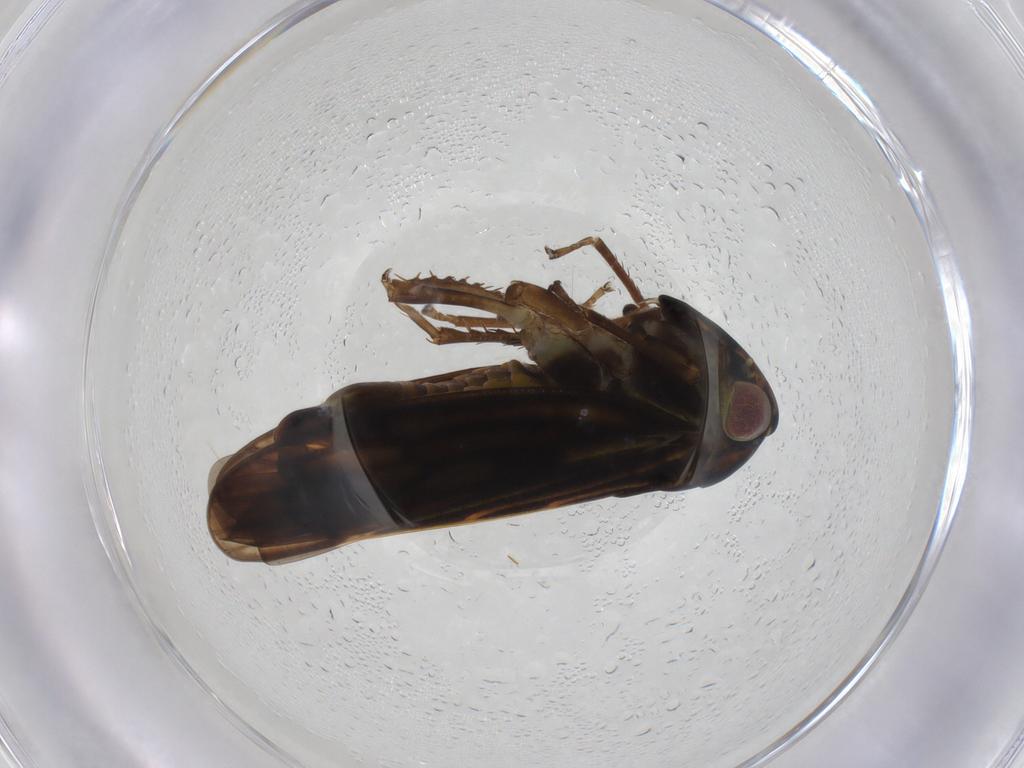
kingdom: Animalia
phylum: Arthropoda
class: Insecta
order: Hemiptera
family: Cicadellidae
